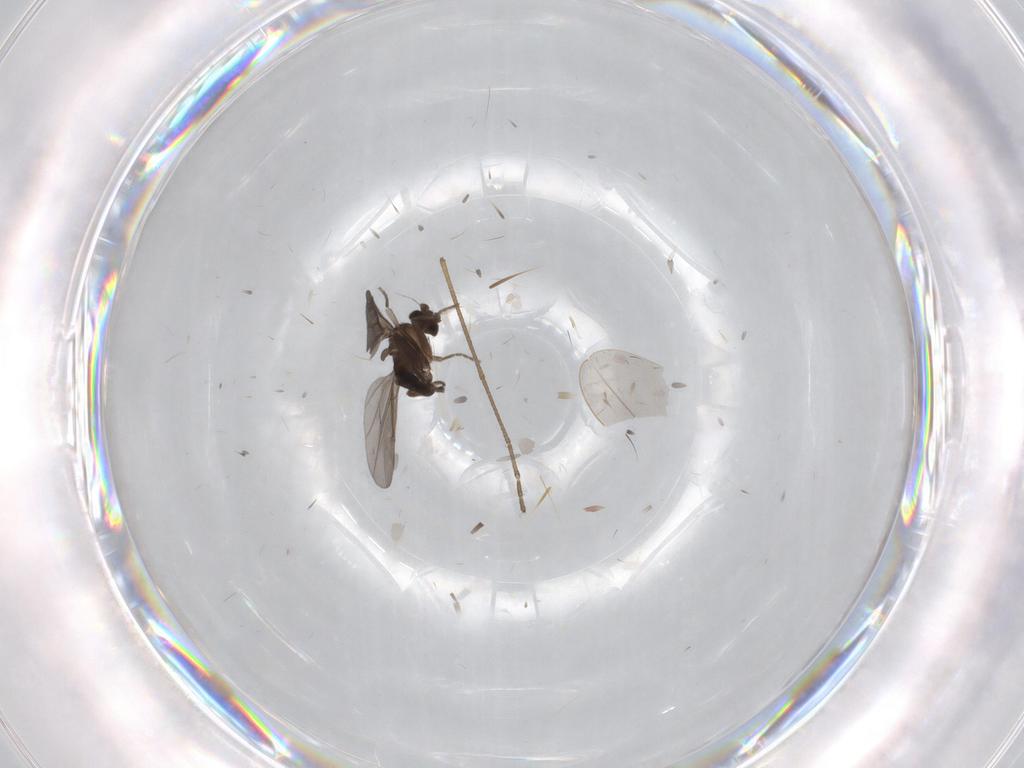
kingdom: Animalia
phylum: Arthropoda
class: Insecta
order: Diptera
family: Phoridae
